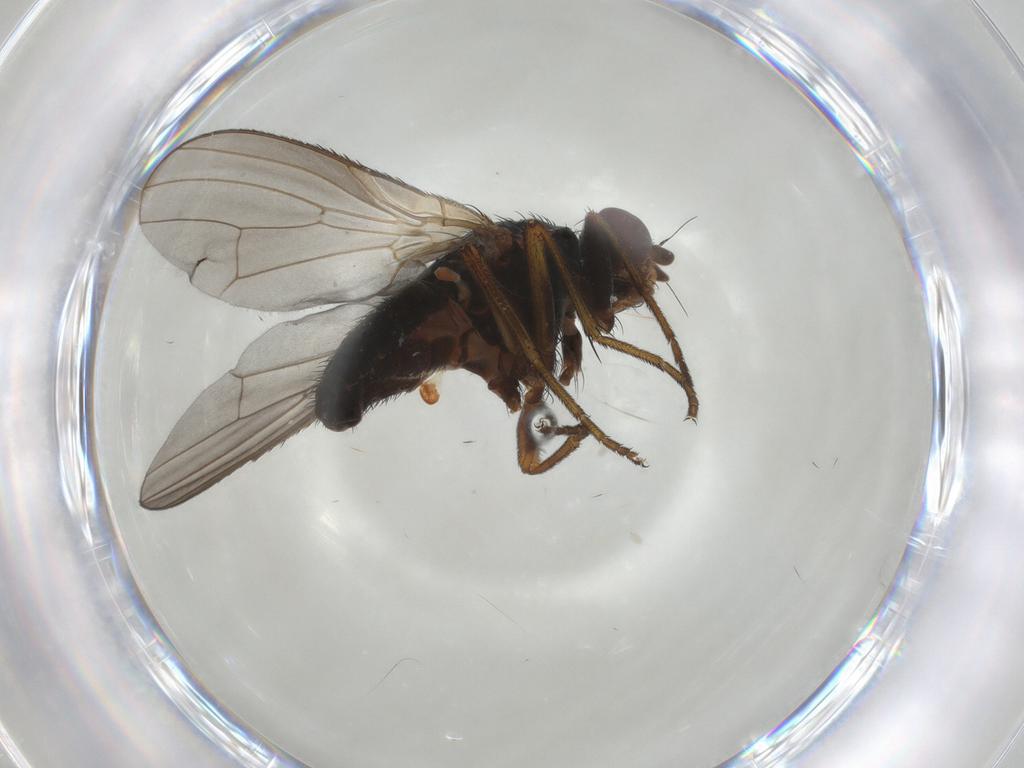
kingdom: Animalia
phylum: Arthropoda
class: Insecta
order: Diptera
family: Heleomyzidae
